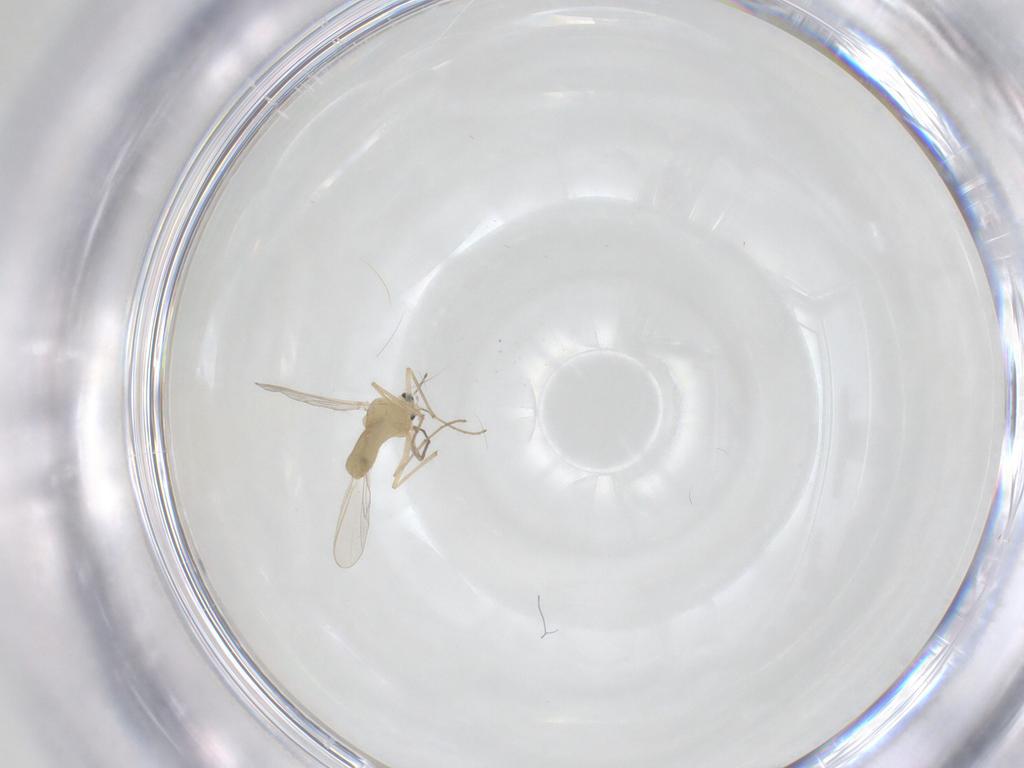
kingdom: Animalia
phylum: Arthropoda
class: Insecta
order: Diptera
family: Chironomidae
